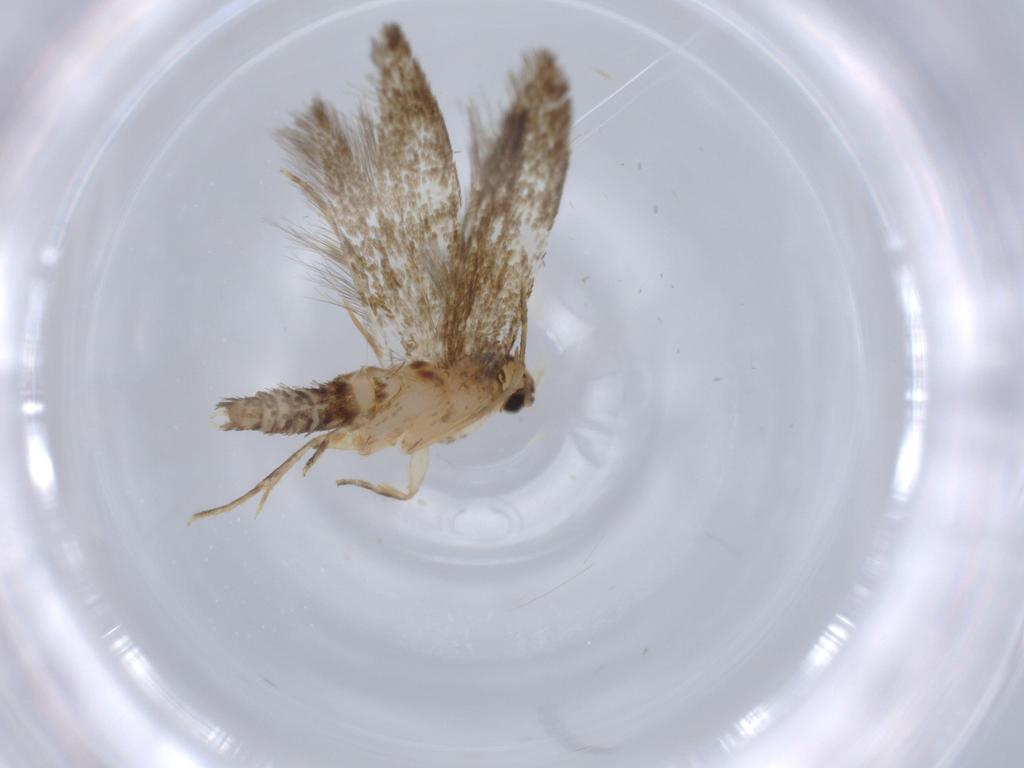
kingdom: Animalia
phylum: Arthropoda
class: Insecta
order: Lepidoptera
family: Tineidae
